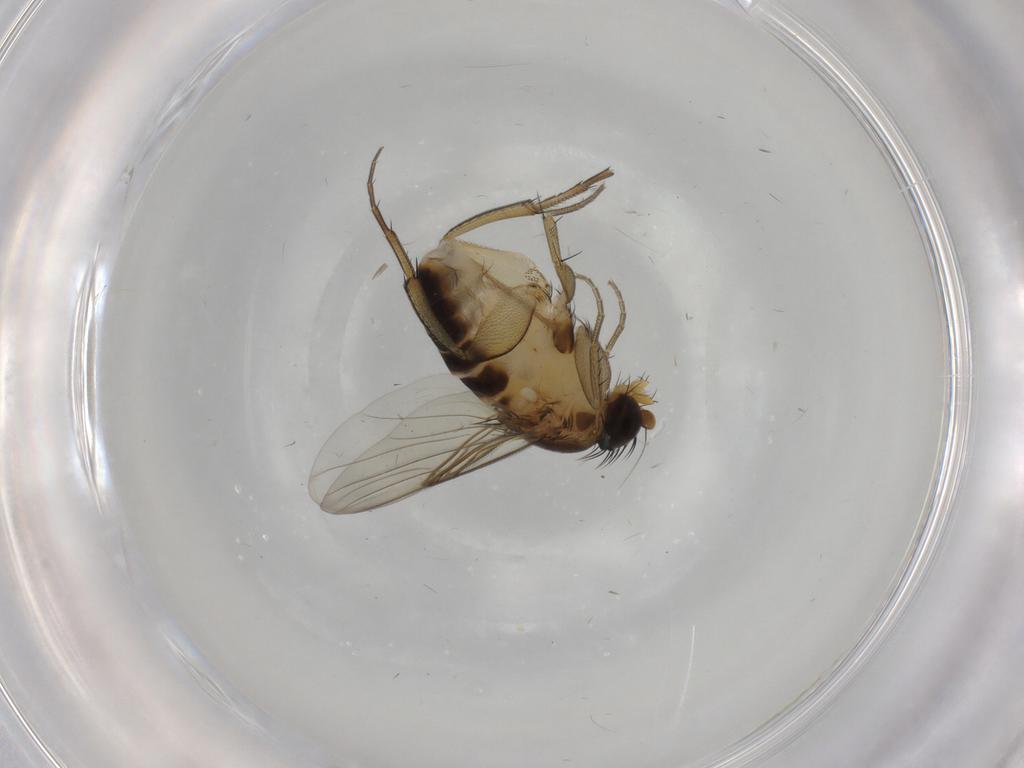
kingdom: Animalia
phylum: Arthropoda
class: Insecta
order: Diptera
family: Phoridae
